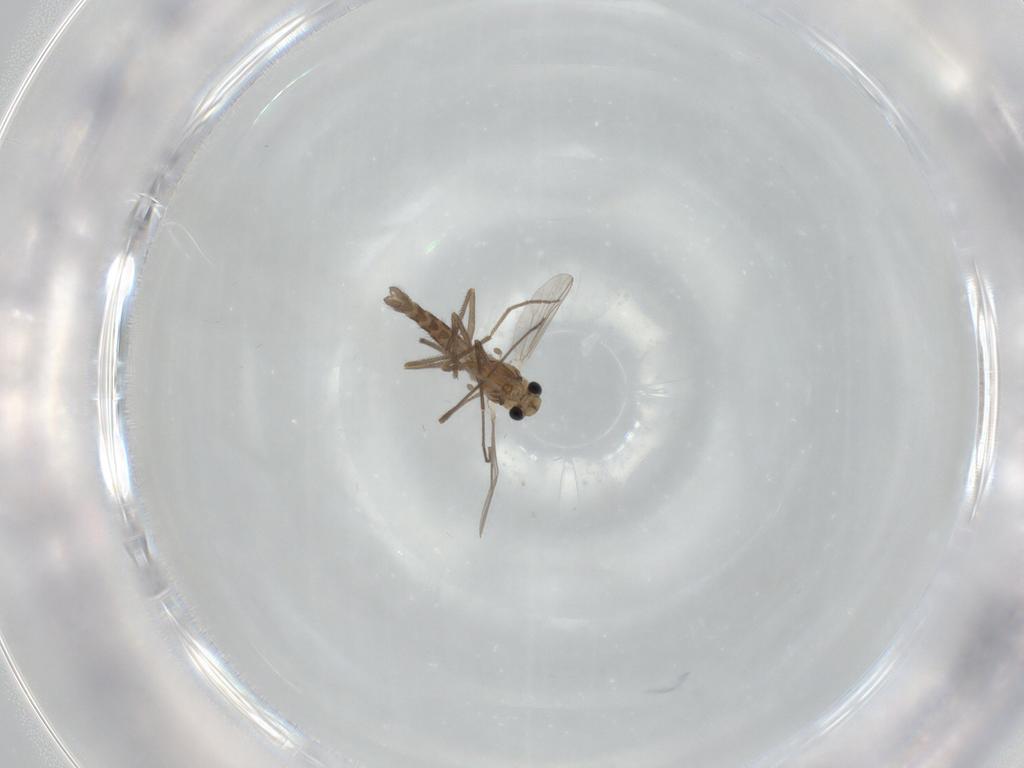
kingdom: Animalia
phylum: Arthropoda
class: Insecta
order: Diptera
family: Chironomidae
